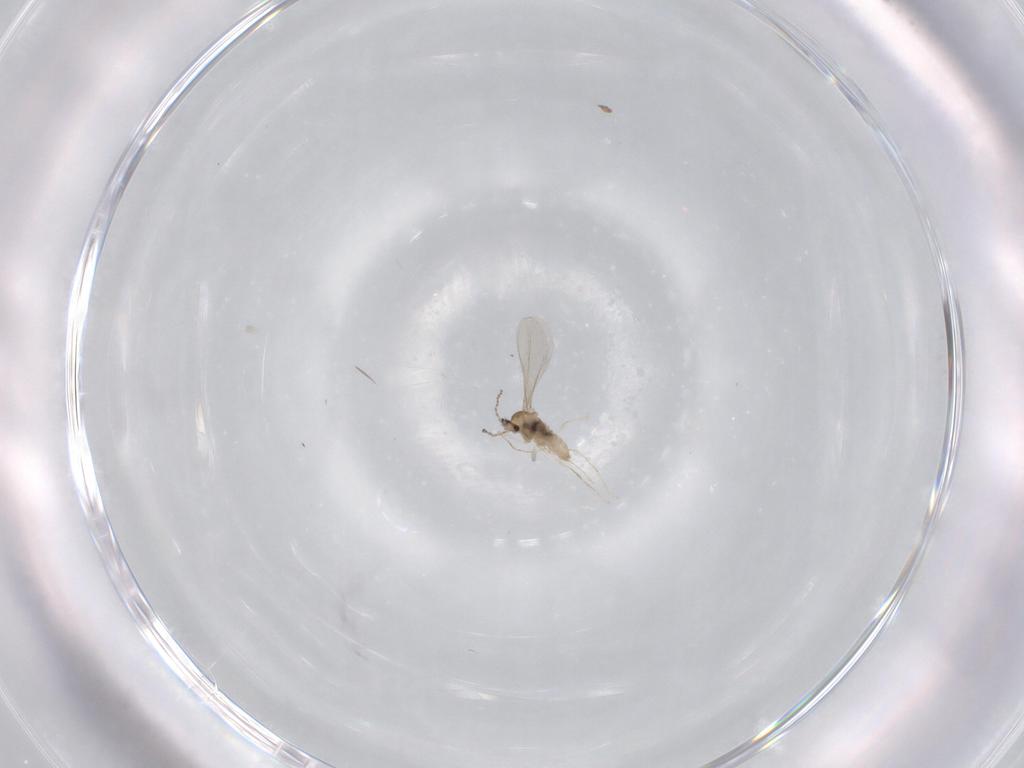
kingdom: Animalia
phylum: Arthropoda
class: Insecta
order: Diptera
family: Cecidomyiidae
